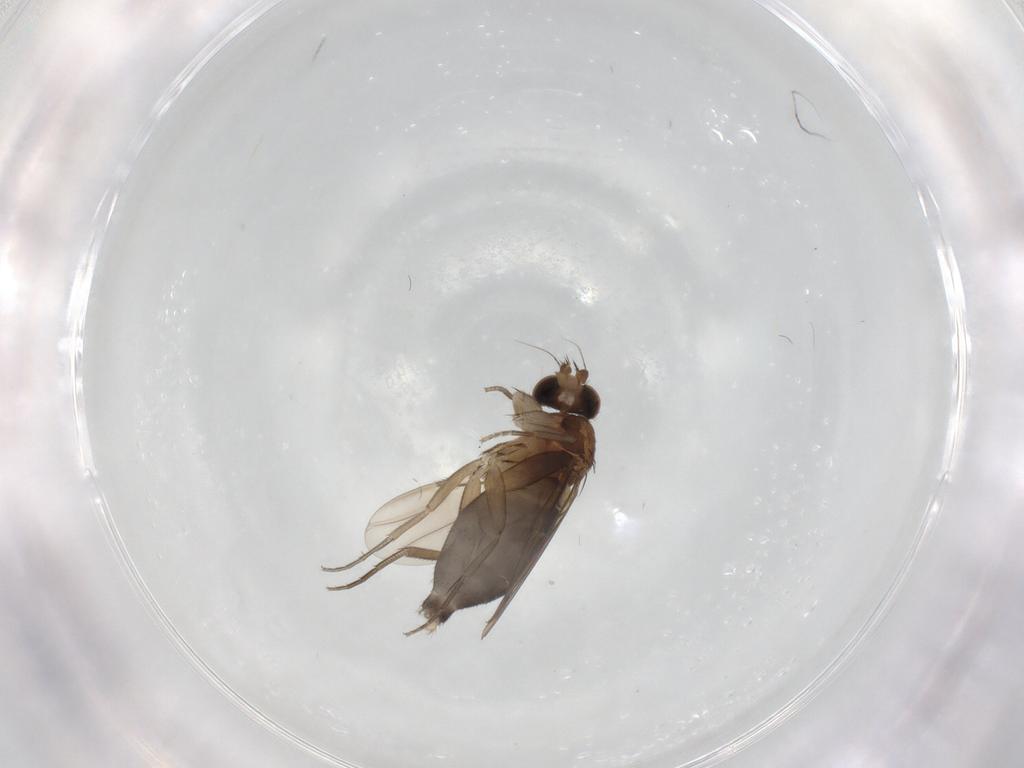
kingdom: Animalia
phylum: Arthropoda
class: Insecta
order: Diptera
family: Phoridae
